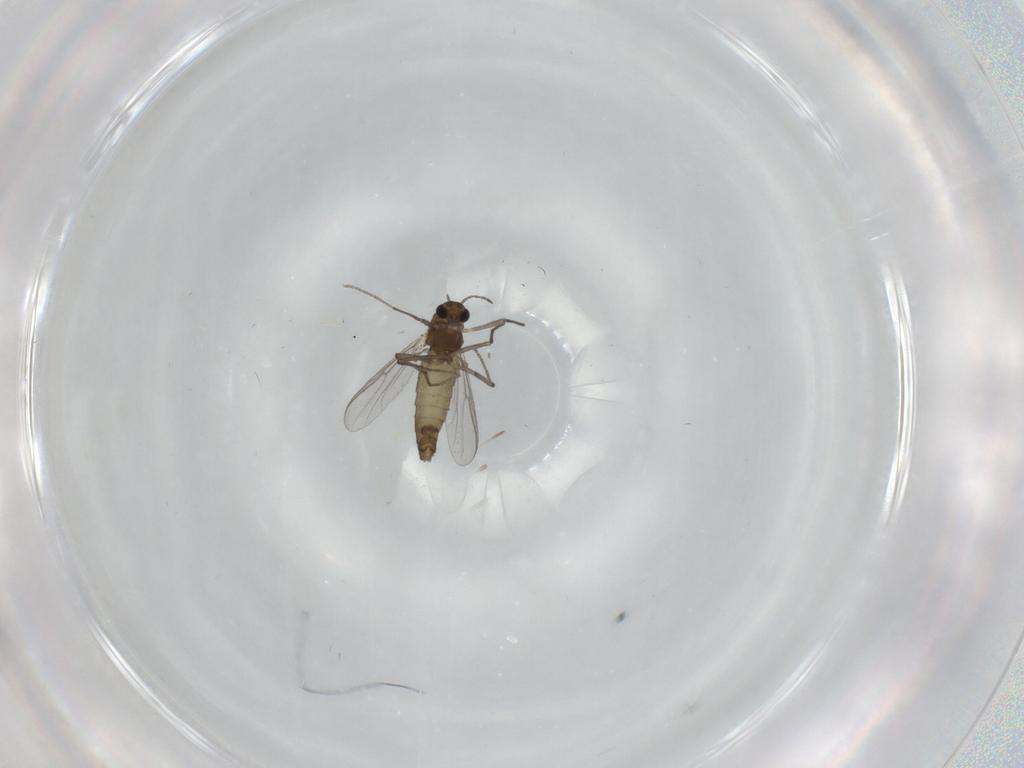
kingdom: Animalia
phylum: Arthropoda
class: Insecta
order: Diptera
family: Chironomidae
